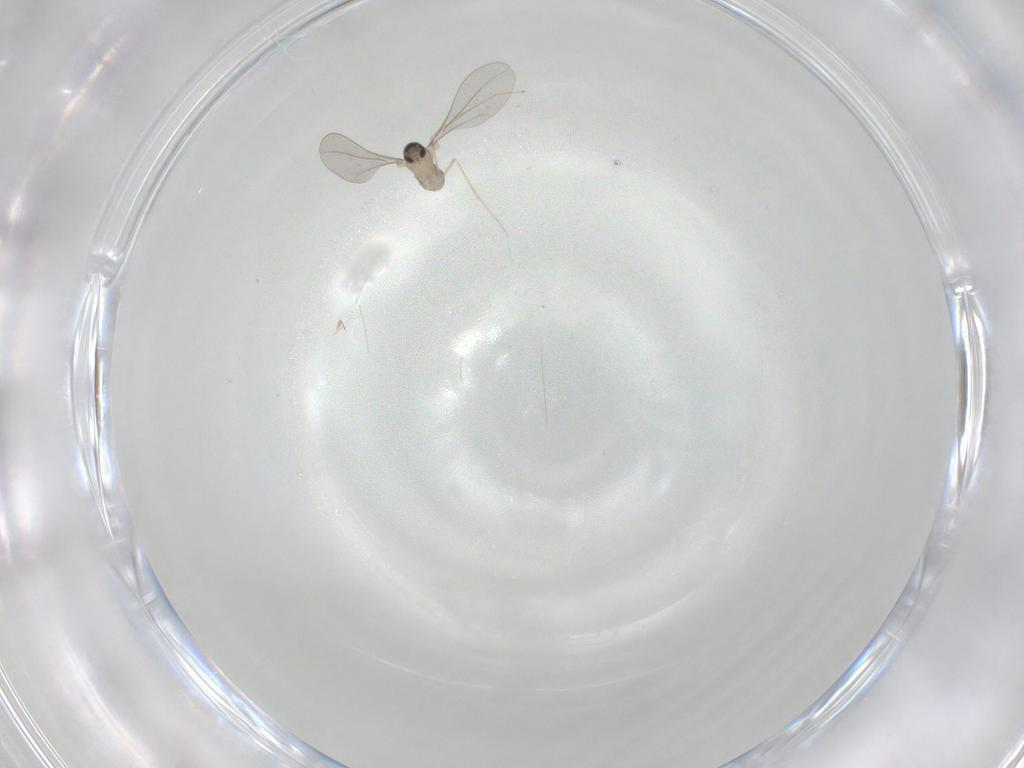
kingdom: Animalia
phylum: Arthropoda
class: Insecta
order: Diptera
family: Cecidomyiidae
